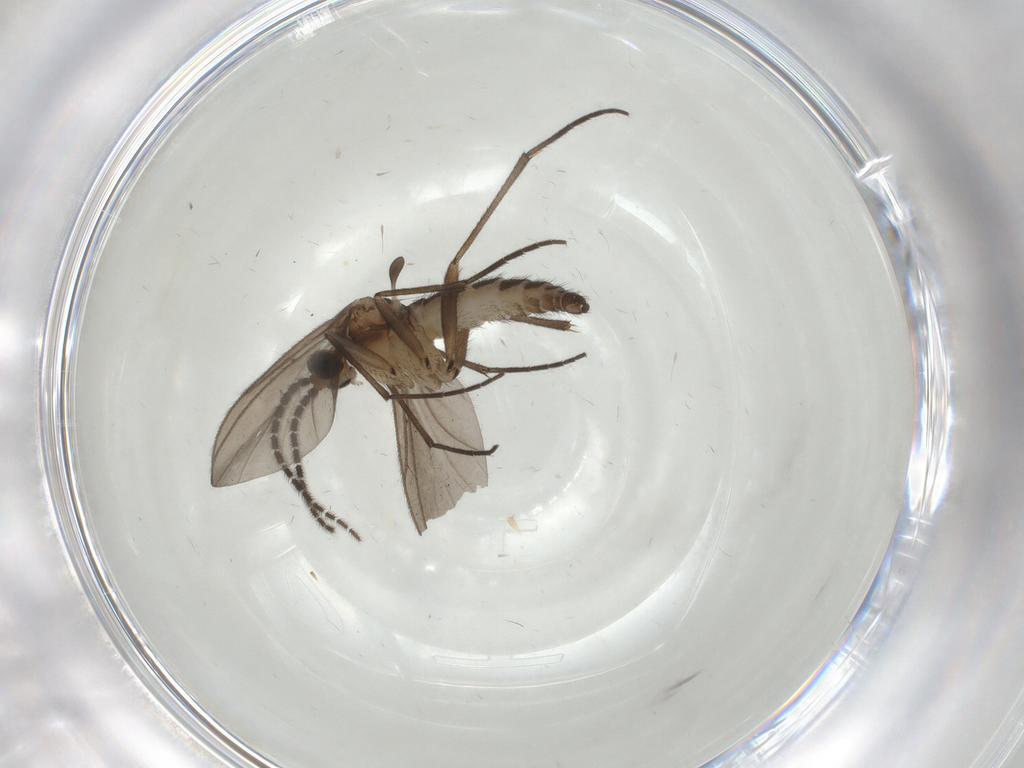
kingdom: Animalia
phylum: Arthropoda
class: Insecta
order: Diptera
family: Sciaridae
